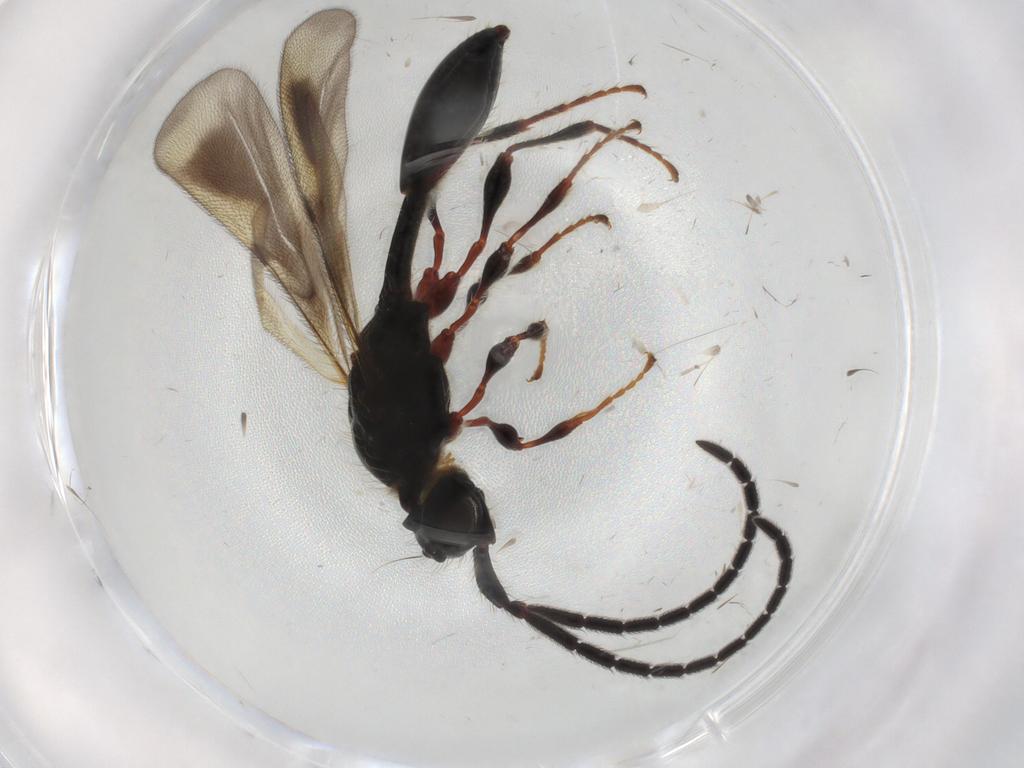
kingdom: Animalia
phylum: Arthropoda
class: Insecta
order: Hymenoptera
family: Diapriidae
